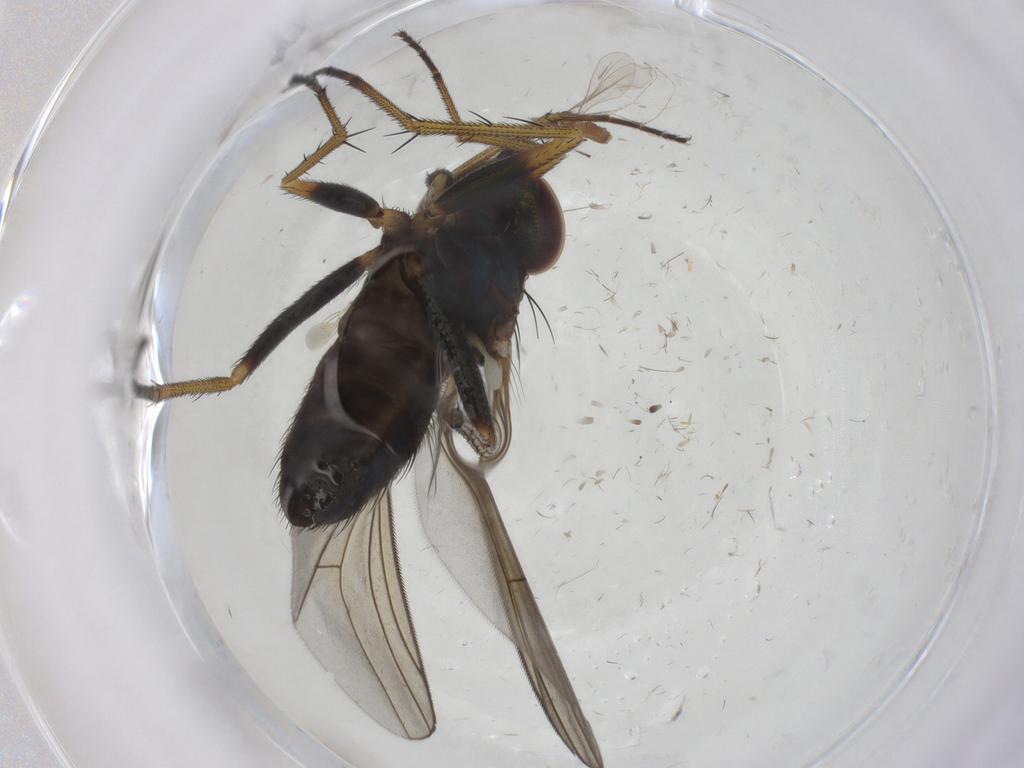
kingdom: Animalia
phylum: Arthropoda
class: Insecta
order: Diptera
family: Dolichopodidae
